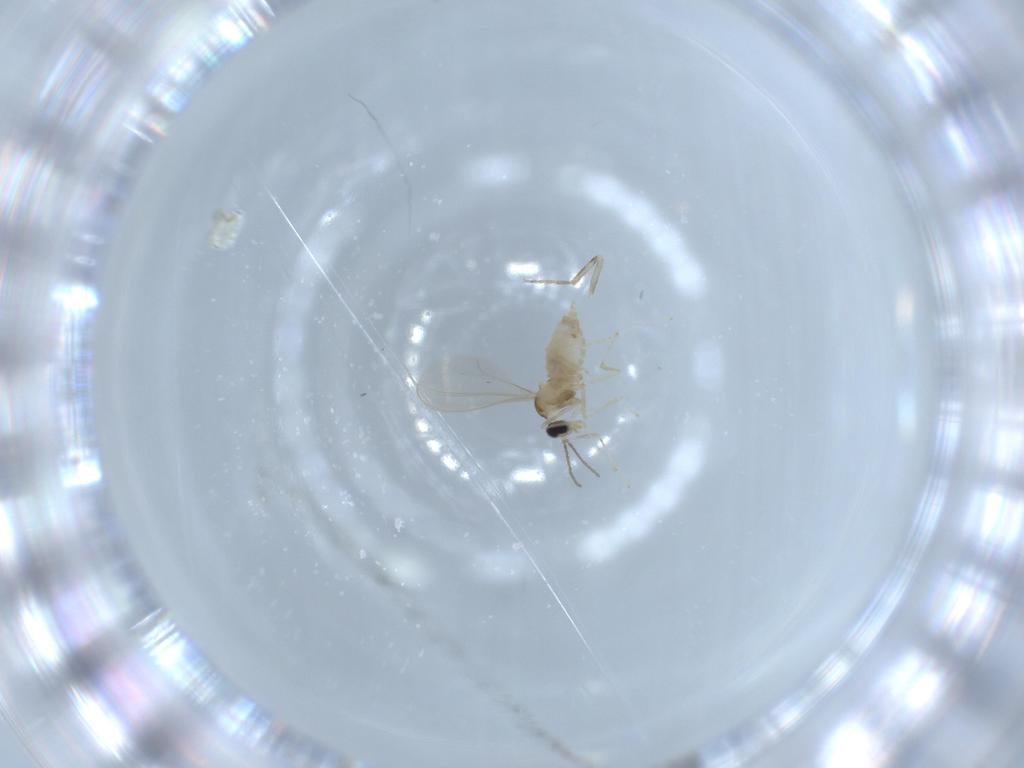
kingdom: Animalia
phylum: Arthropoda
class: Insecta
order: Diptera
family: Cecidomyiidae
